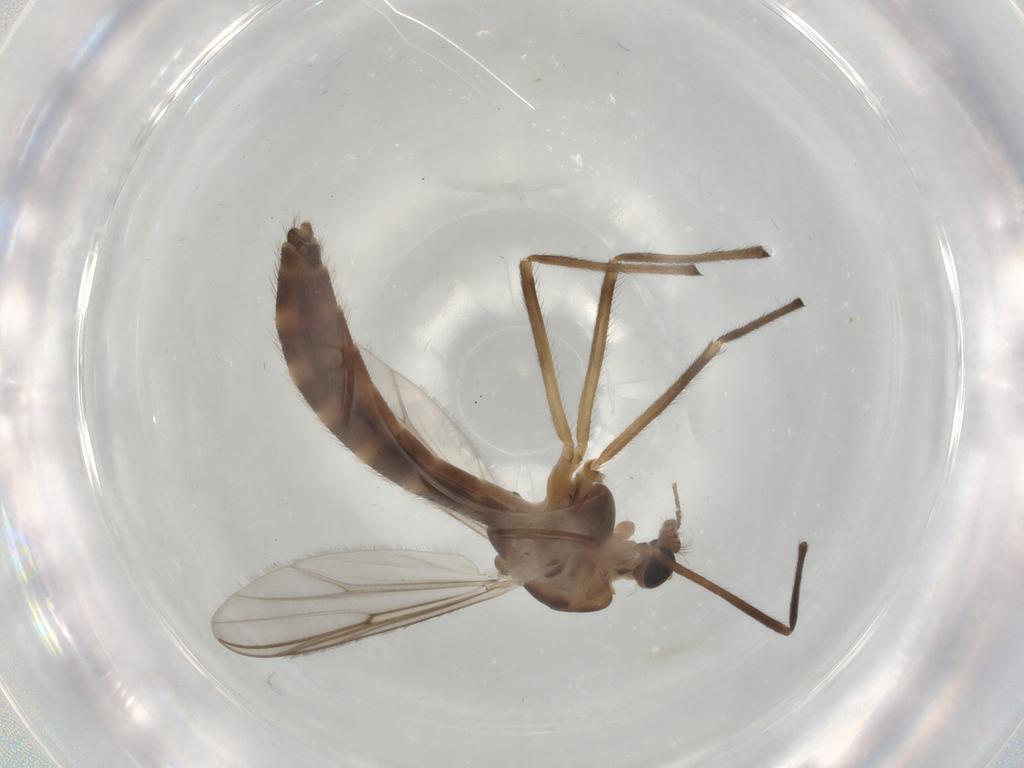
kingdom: Animalia
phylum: Arthropoda
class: Insecta
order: Diptera
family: Chironomidae
